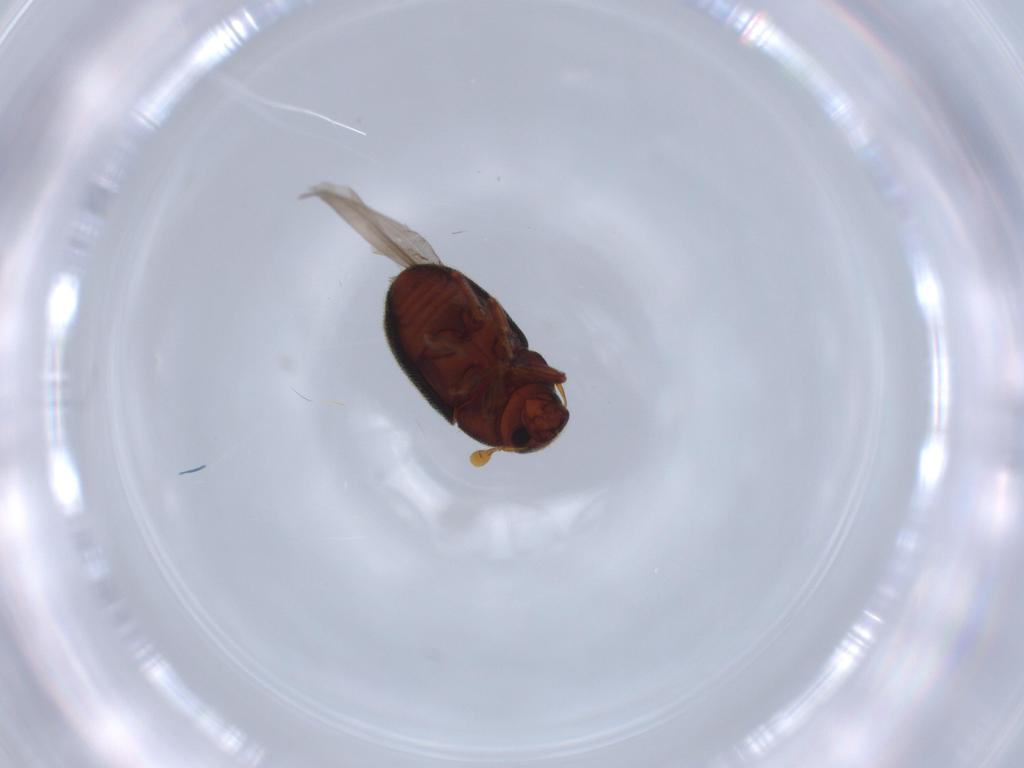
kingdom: Animalia
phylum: Arthropoda
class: Insecta
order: Coleoptera
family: Curculionidae
